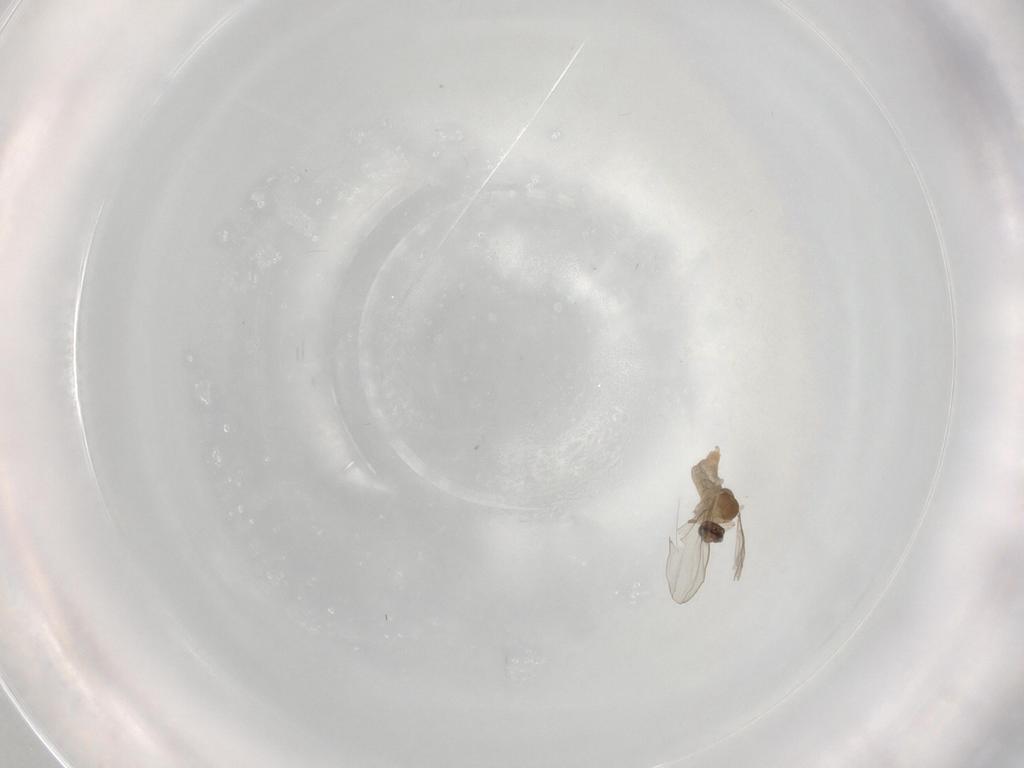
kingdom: Animalia
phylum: Arthropoda
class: Insecta
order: Diptera
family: Cecidomyiidae
